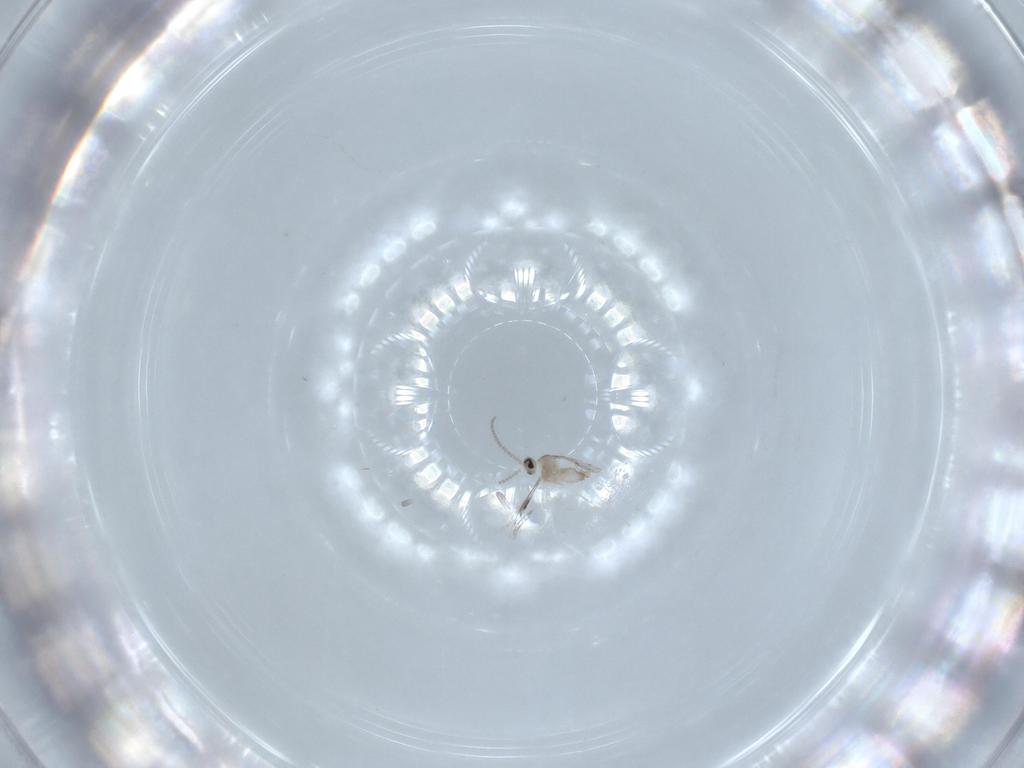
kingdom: Animalia
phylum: Arthropoda
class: Insecta
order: Diptera
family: Cecidomyiidae
